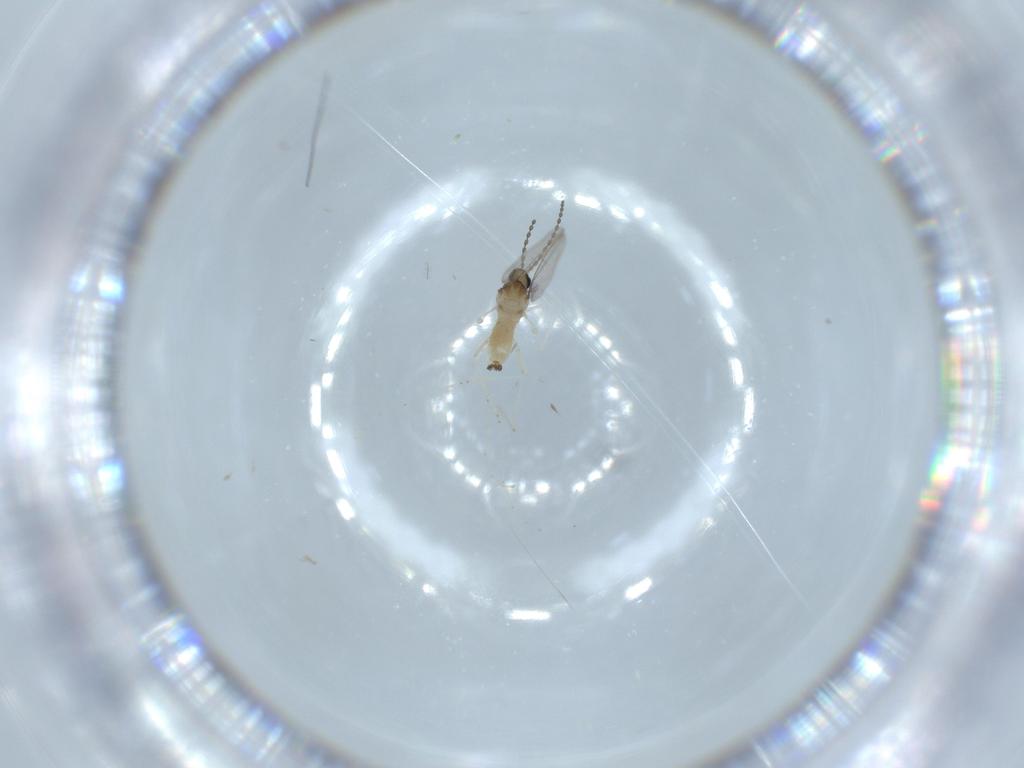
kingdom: Animalia
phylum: Arthropoda
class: Insecta
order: Diptera
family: Cecidomyiidae
